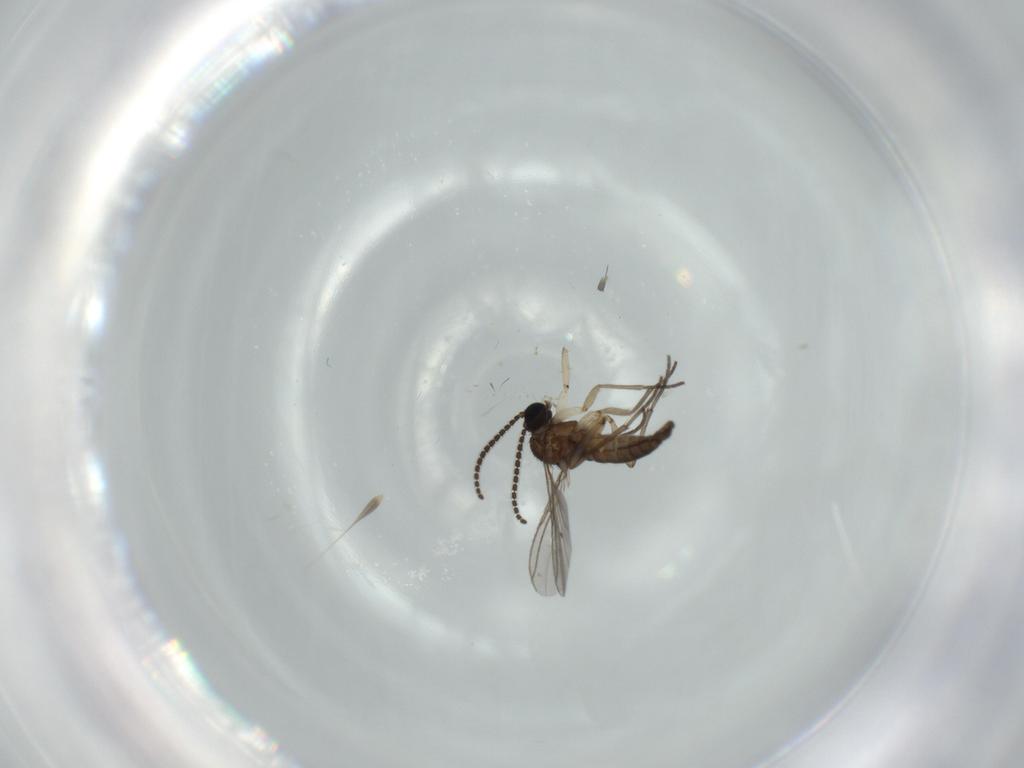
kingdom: Animalia
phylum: Arthropoda
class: Insecta
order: Diptera
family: Sciaridae
